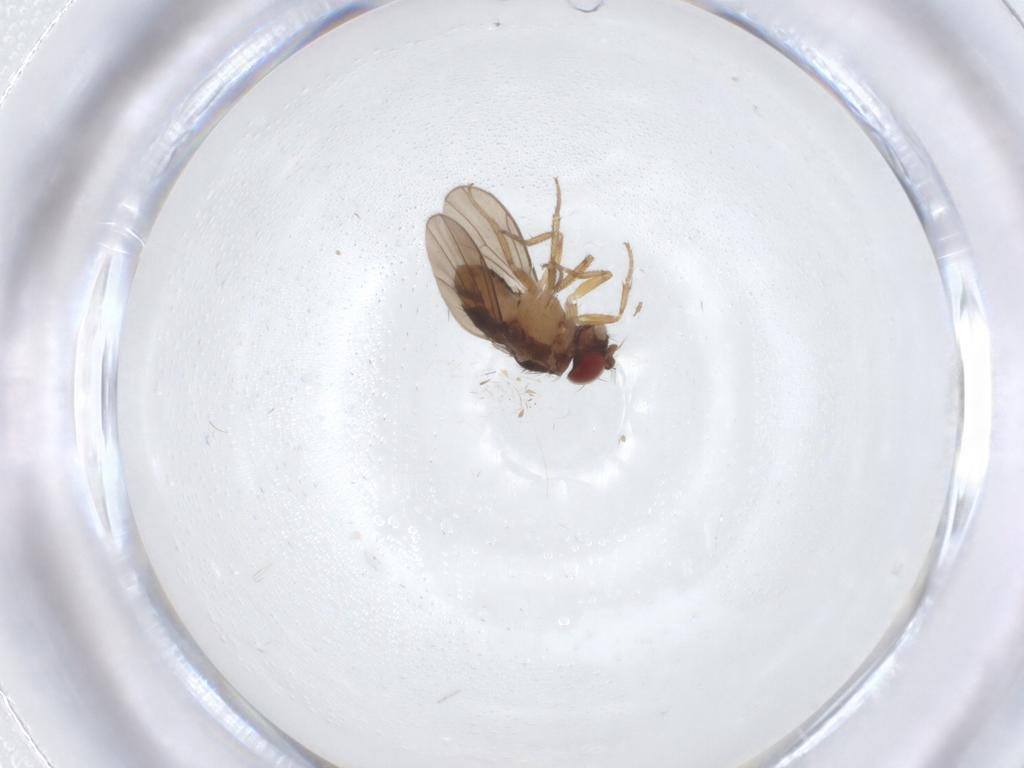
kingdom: Animalia
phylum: Arthropoda
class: Insecta
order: Diptera
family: Drosophilidae
